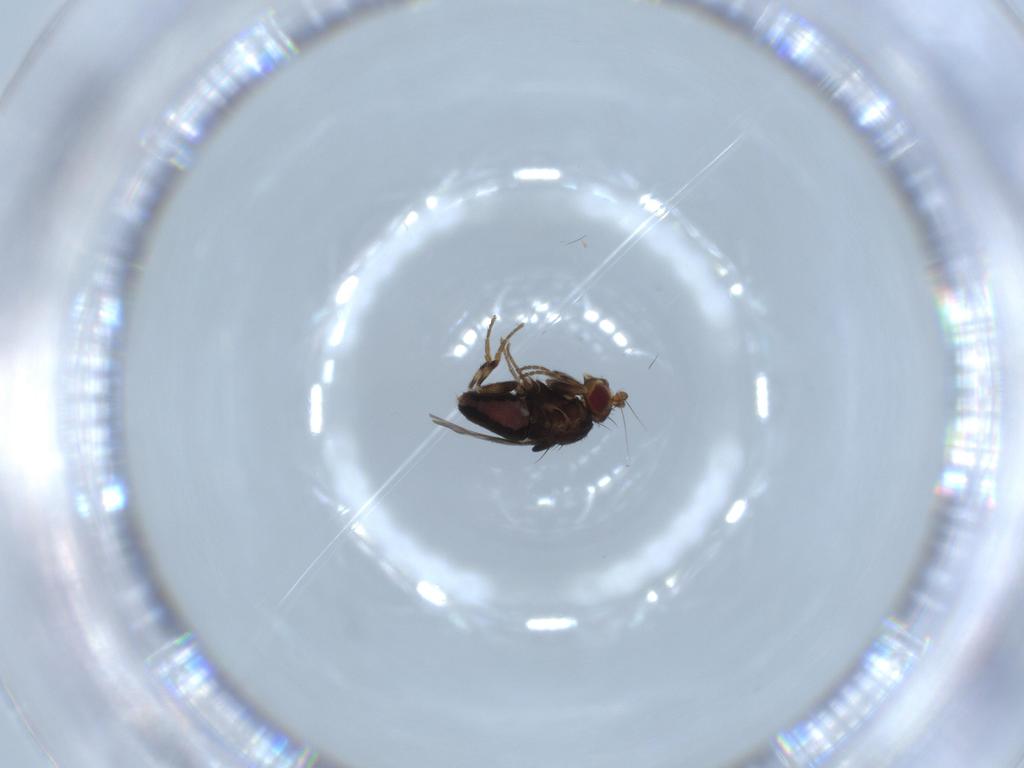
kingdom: Animalia
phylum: Arthropoda
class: Insecta
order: Diptera
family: Sphaeroceridae
